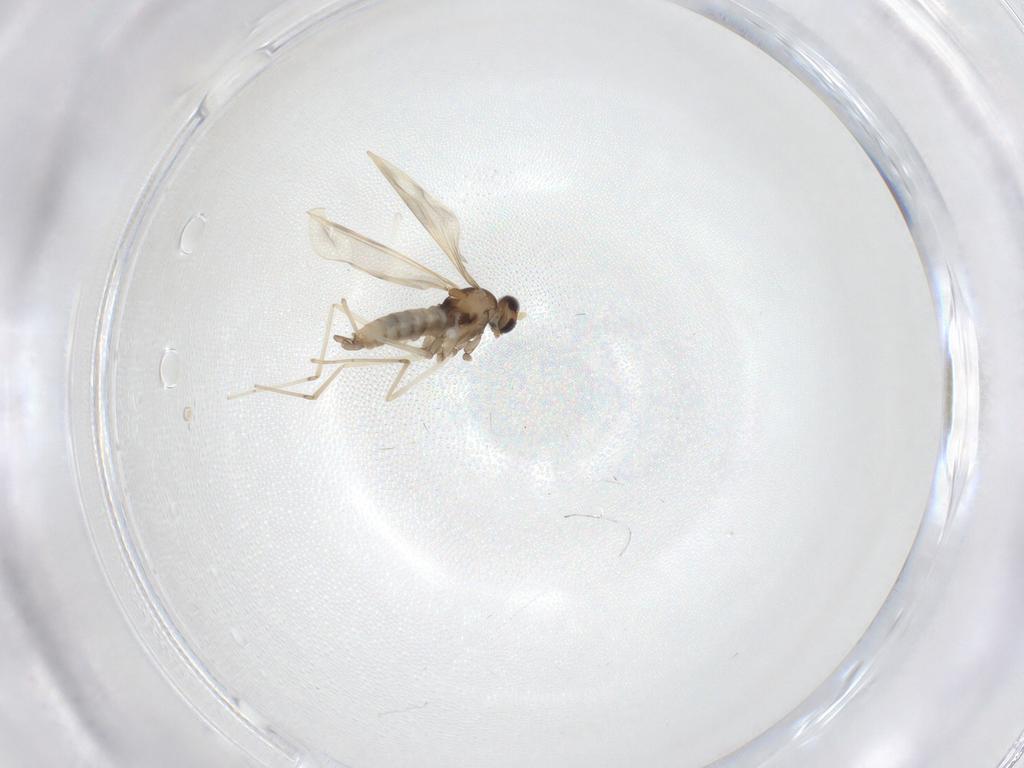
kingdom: Animalia
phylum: Arthropoda
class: Insecta
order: Diptera
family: Cecidomyiidae
